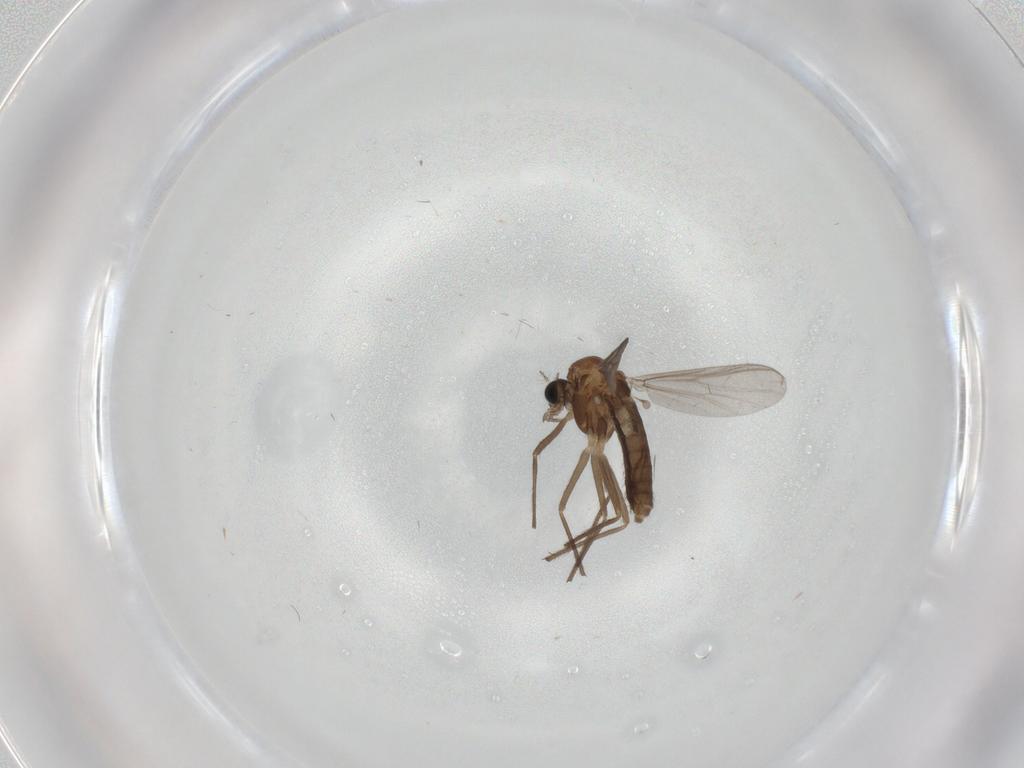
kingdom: Animalia
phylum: Arthropoda
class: Insecta
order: Diptera
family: Chironomidae
